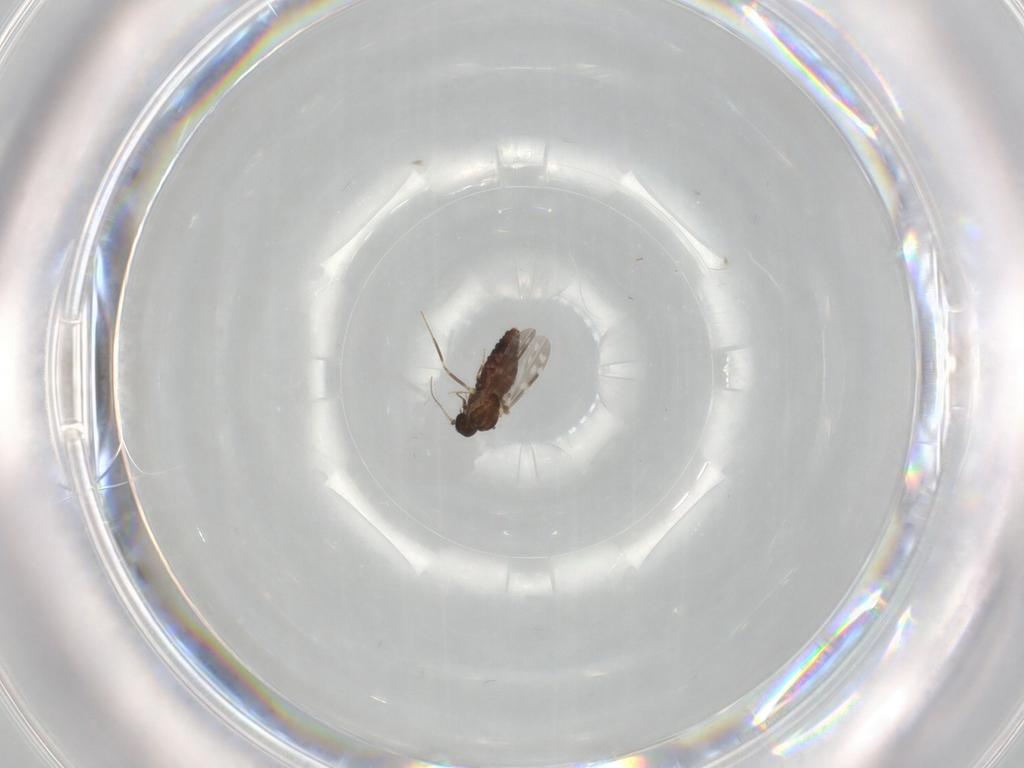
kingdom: Animalia
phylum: Arthropoda
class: Insecta
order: Diptera
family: Ceratopogonidae
